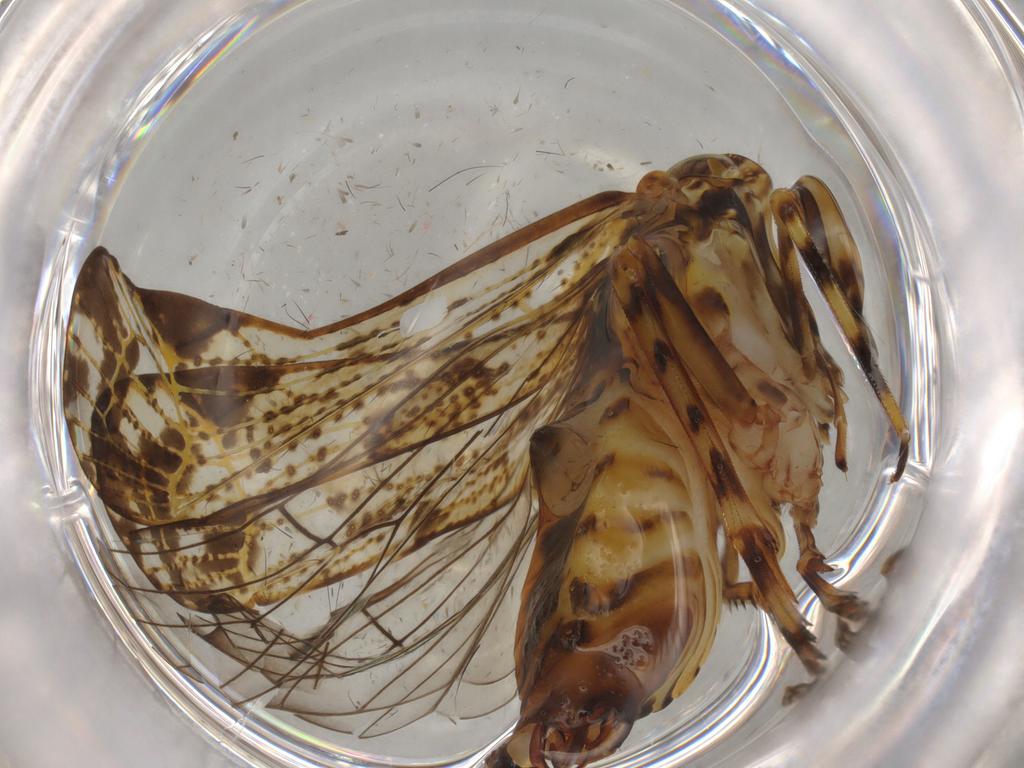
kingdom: Animalia
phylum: Arthropoda
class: Insecta
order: Hemiptera
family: Delphacidae
